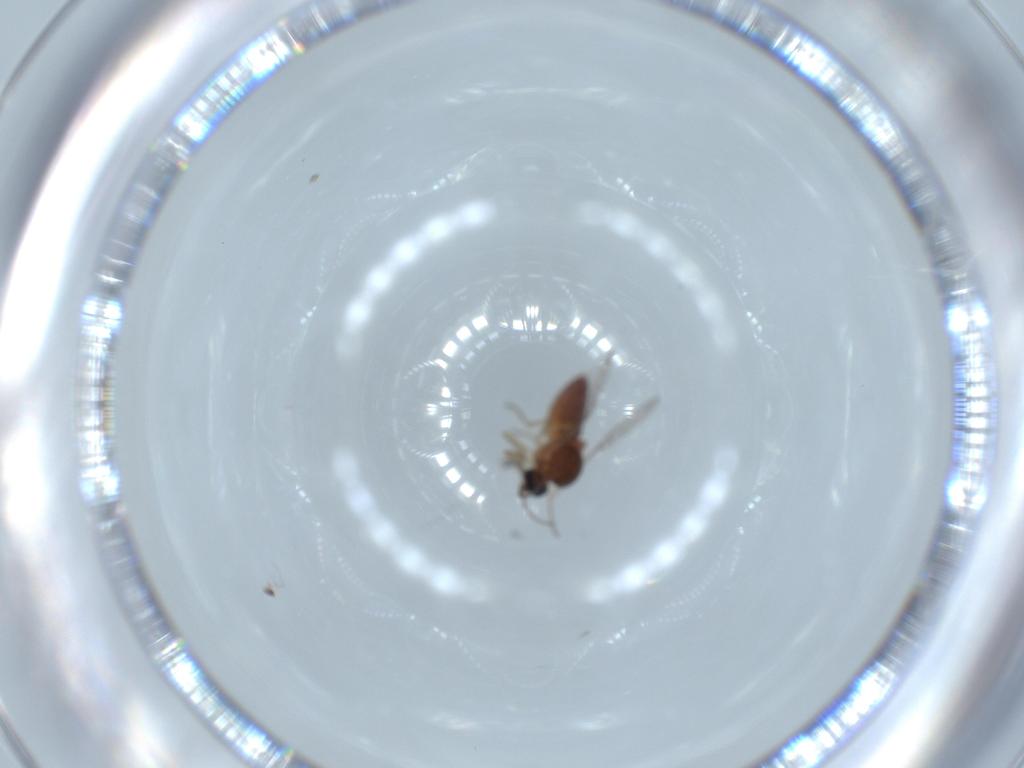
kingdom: Animalia
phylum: Arthropoda
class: Insecta
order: Diptera
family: Ceratopogonidae
